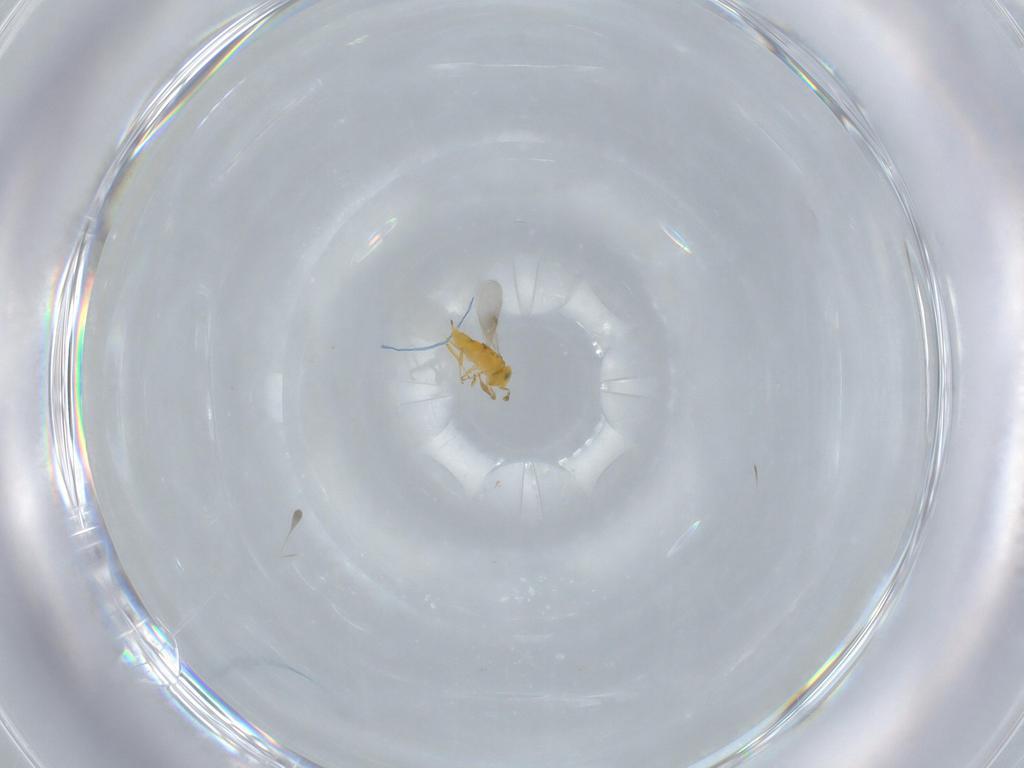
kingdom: Animalia
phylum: Arthropoda
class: Insecta
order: Hymenoptera
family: Encyrtidae
